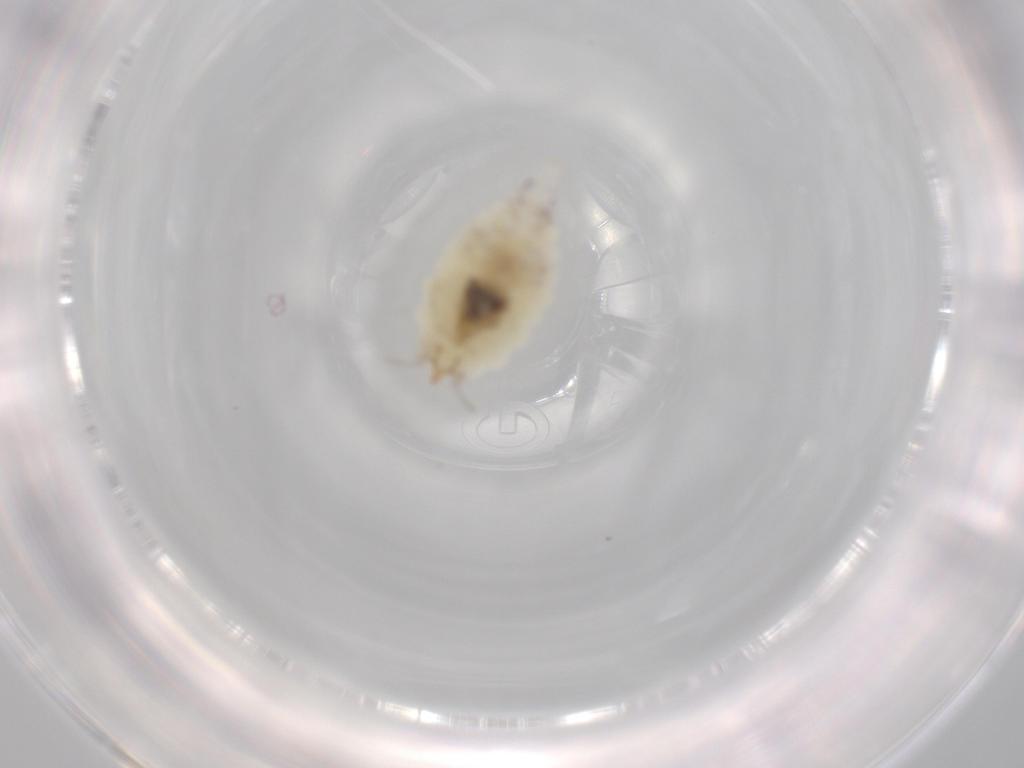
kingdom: Animalia
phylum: Arthropoda
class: Insecta
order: Neuroptera
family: Coniopterygidae
